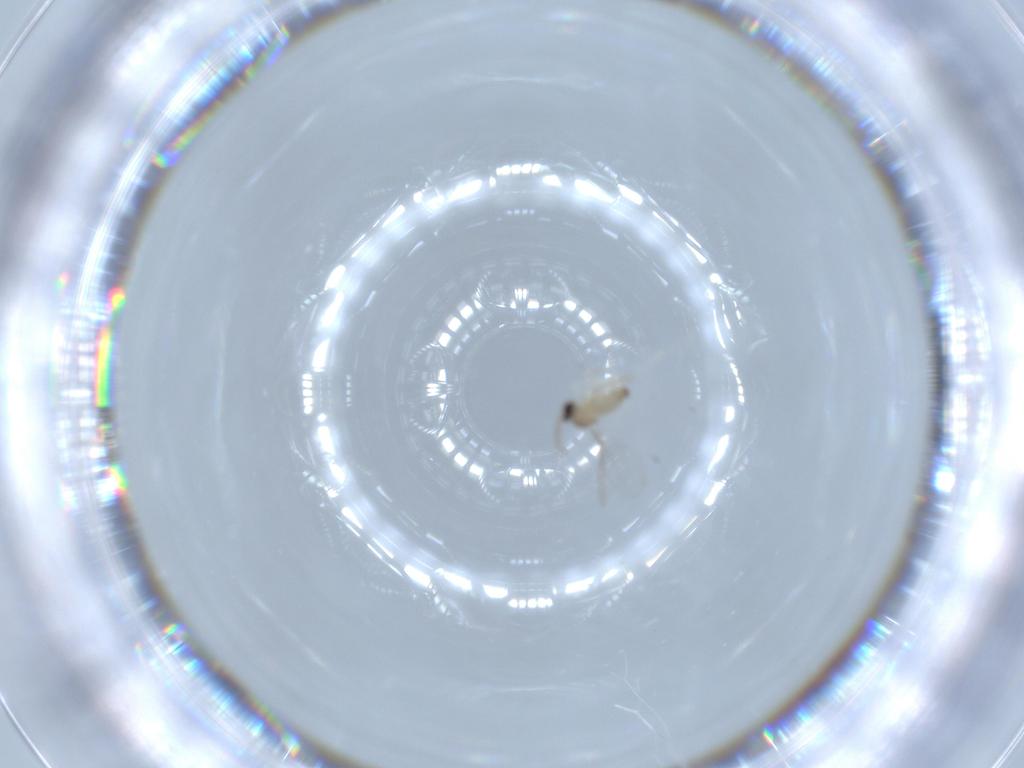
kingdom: Animalia
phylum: Arthropoda
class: Insecta
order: Diptera
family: Cecidomyiidae
